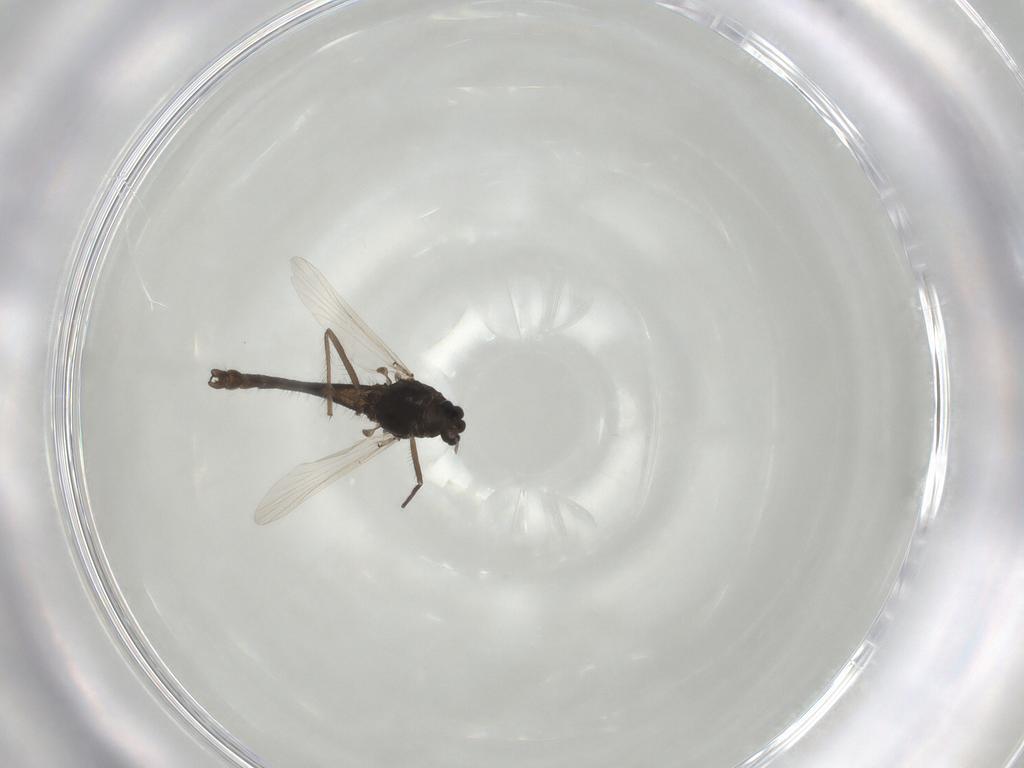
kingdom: Animalia
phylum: Arthropoda
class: Insecta
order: Diptera
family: Chironomidae
